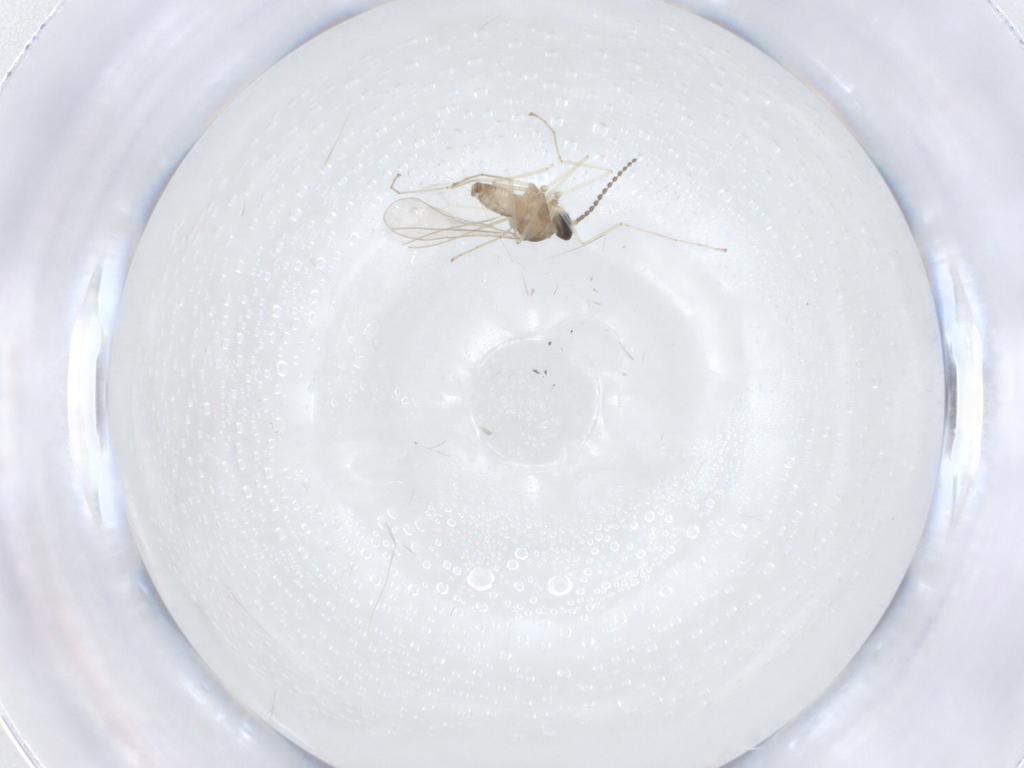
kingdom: Animalia
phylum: Arthropoda
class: Insecta
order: Diptera
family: Cecidomyiidae
